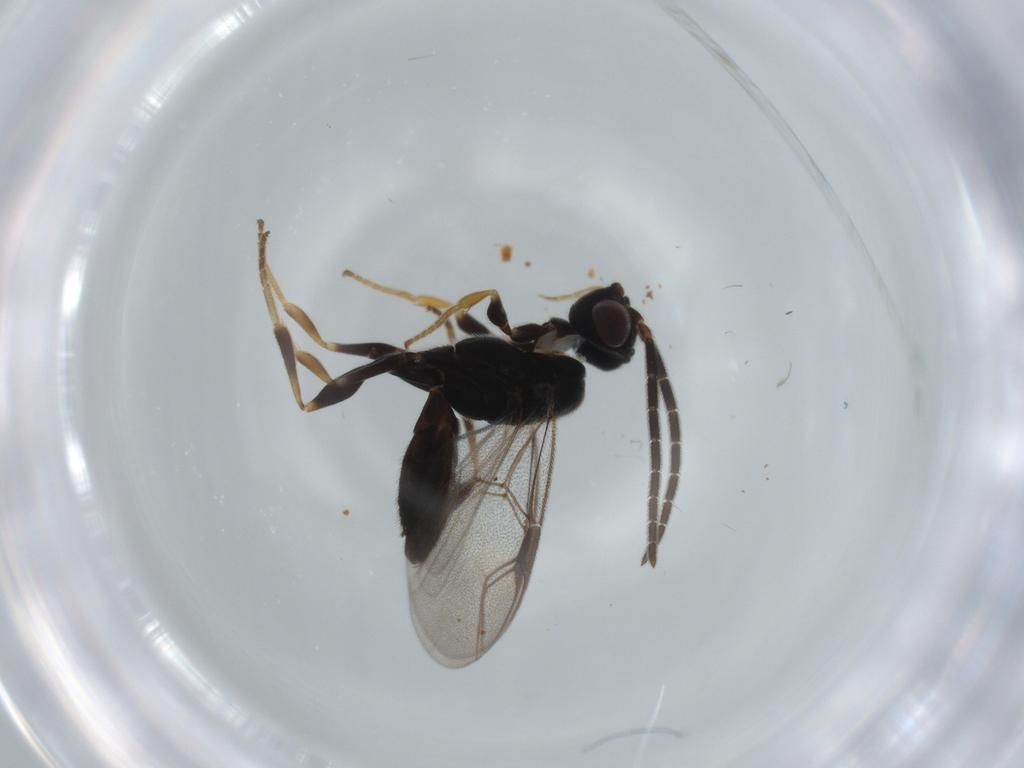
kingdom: Animalia
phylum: Arthropoda
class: Insecta
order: Hymenoptera
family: Dryinidae
